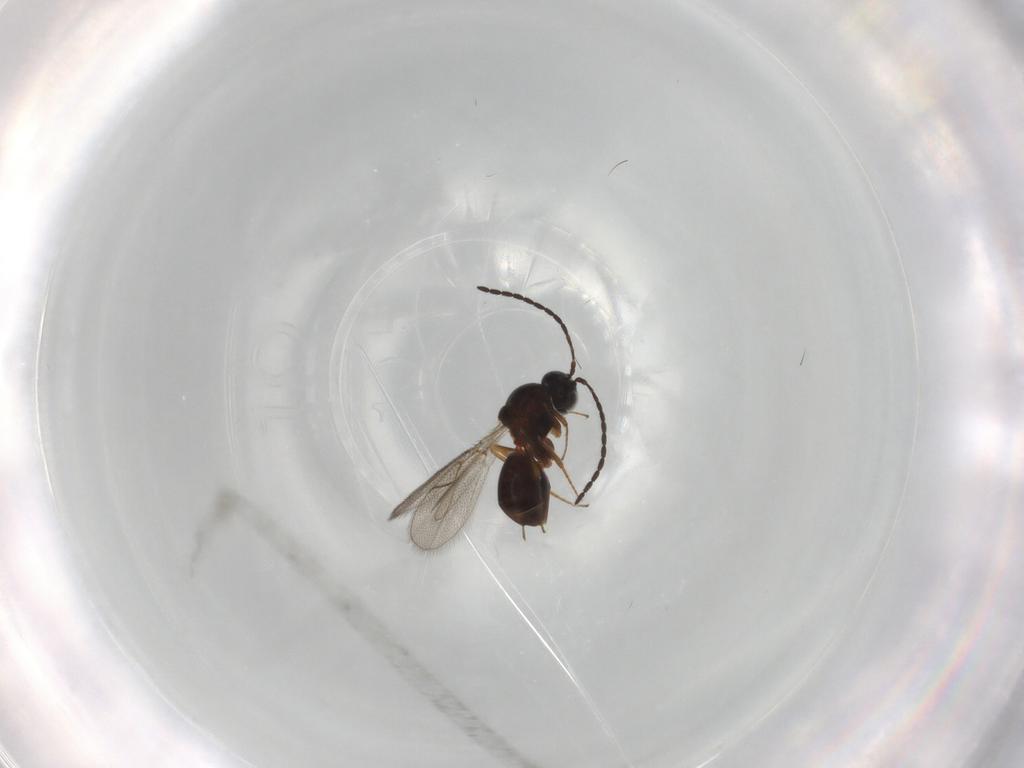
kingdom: Animalia
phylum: Arthropoda
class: Insecta
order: Hymenoptera
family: Figitidae
